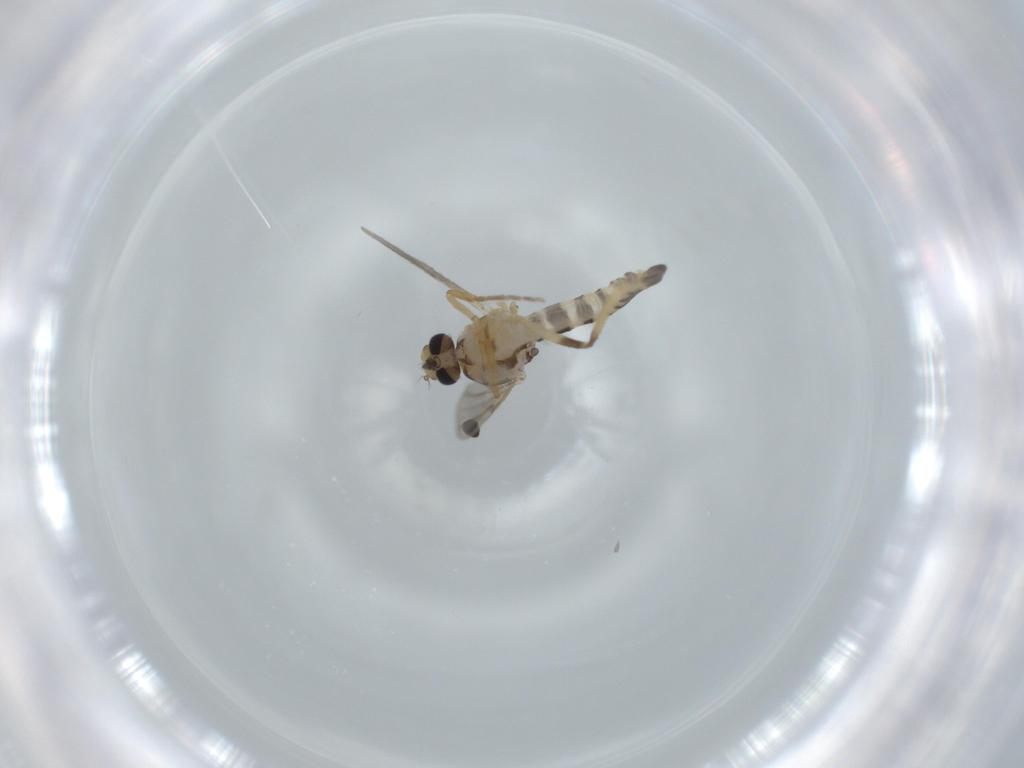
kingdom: Animalia
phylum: Arthropoda
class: Insecta
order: Diptera
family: Ceratopogonidae
